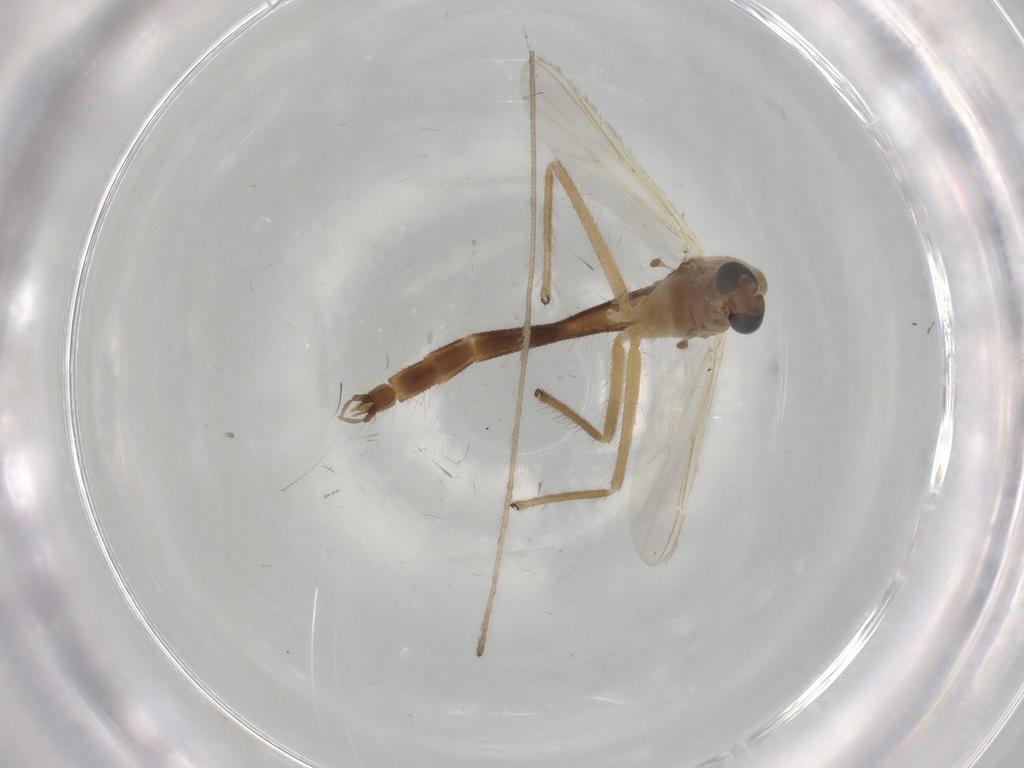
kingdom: Animalia
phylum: Arthropoda
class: Insecta
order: Diptera
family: Chironomidae
